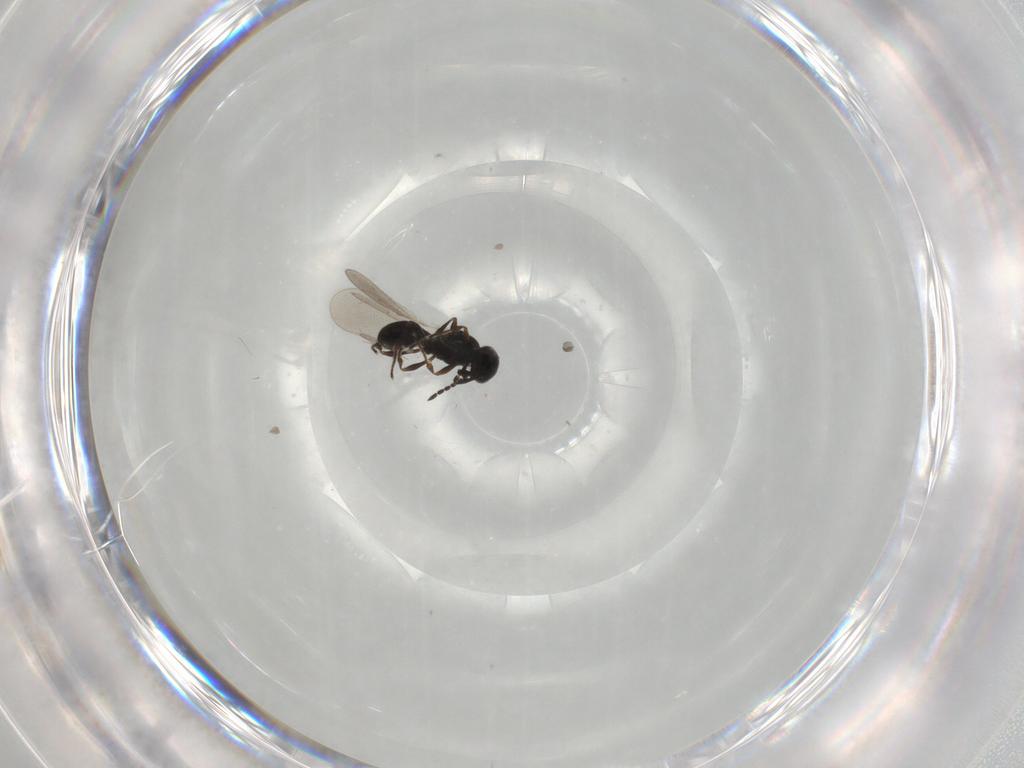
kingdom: Animalia
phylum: Arthropoda
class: Insecta
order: Hymenoptera
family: Platygastridae
